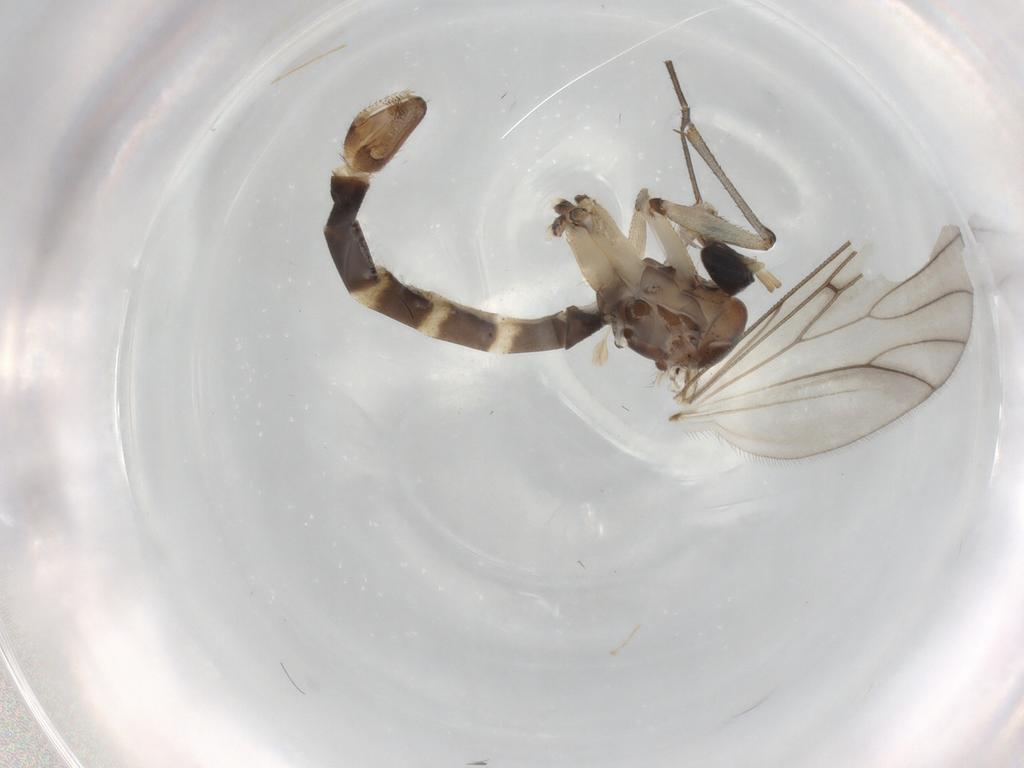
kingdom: Animalia
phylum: Arthropoda
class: Insecta
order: Diptera
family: Mycetophilidae
